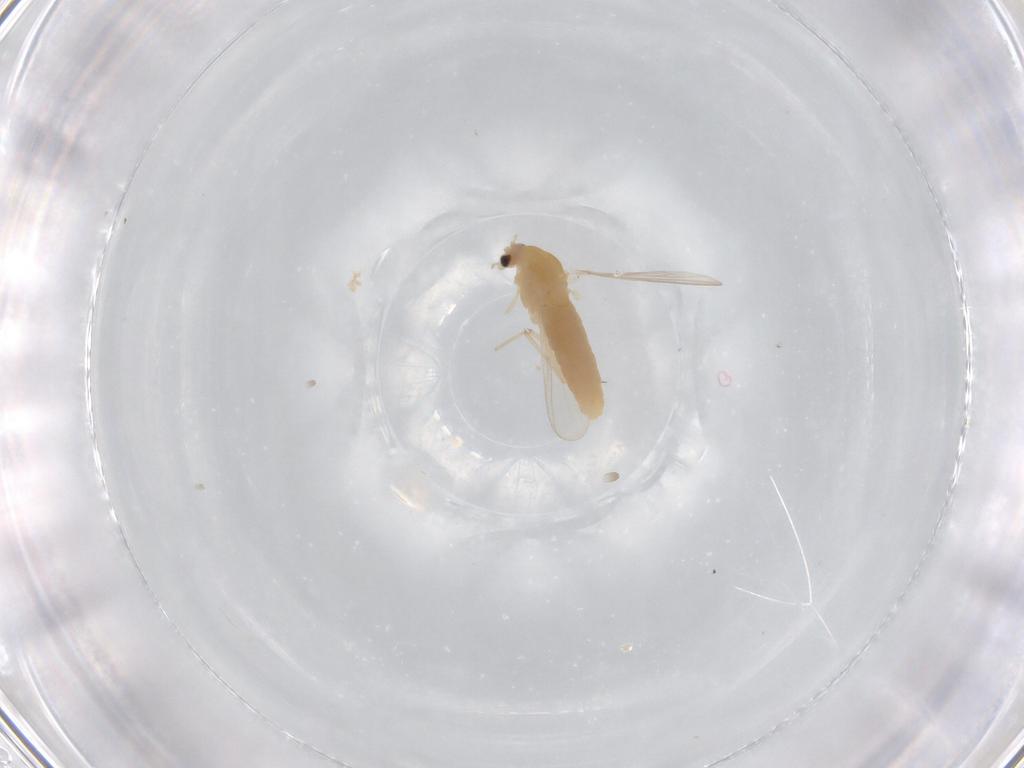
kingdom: Animalia
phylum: Arthropoda
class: Insecta
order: Diptera
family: Chironomidae
